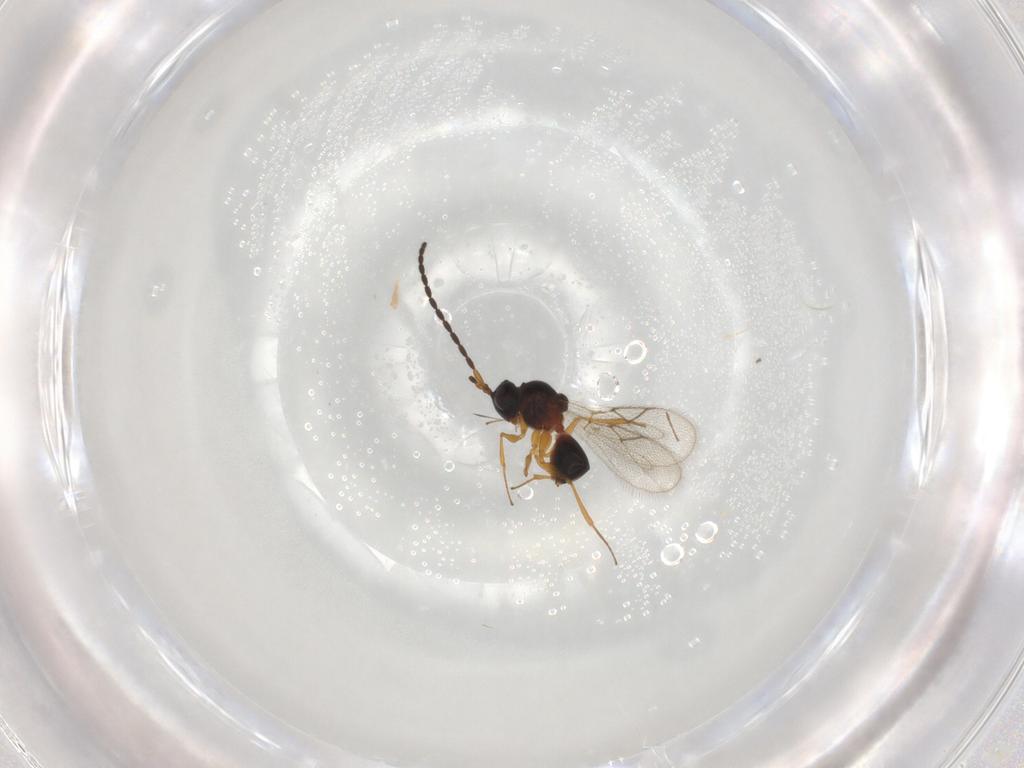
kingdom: Animalia
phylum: Arthropoda
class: Insecta
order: Hymenoptera
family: Figitidae
